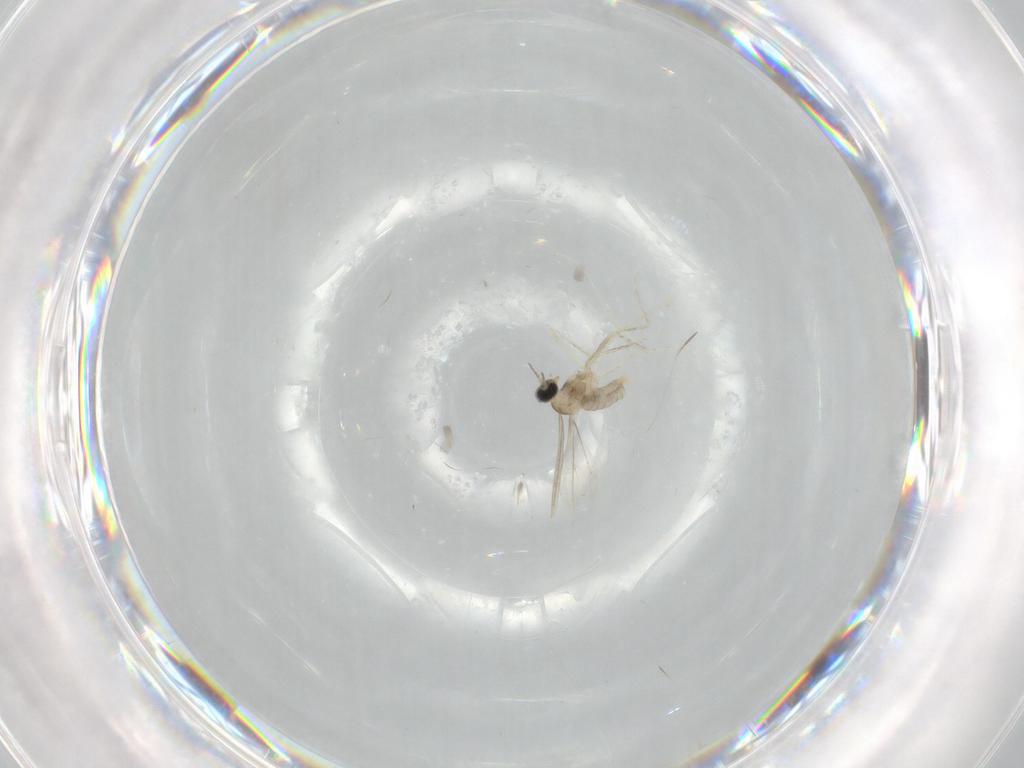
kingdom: Animalia
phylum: Arthropoda
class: Insecta
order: Diptera
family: Cecidomyiidae
